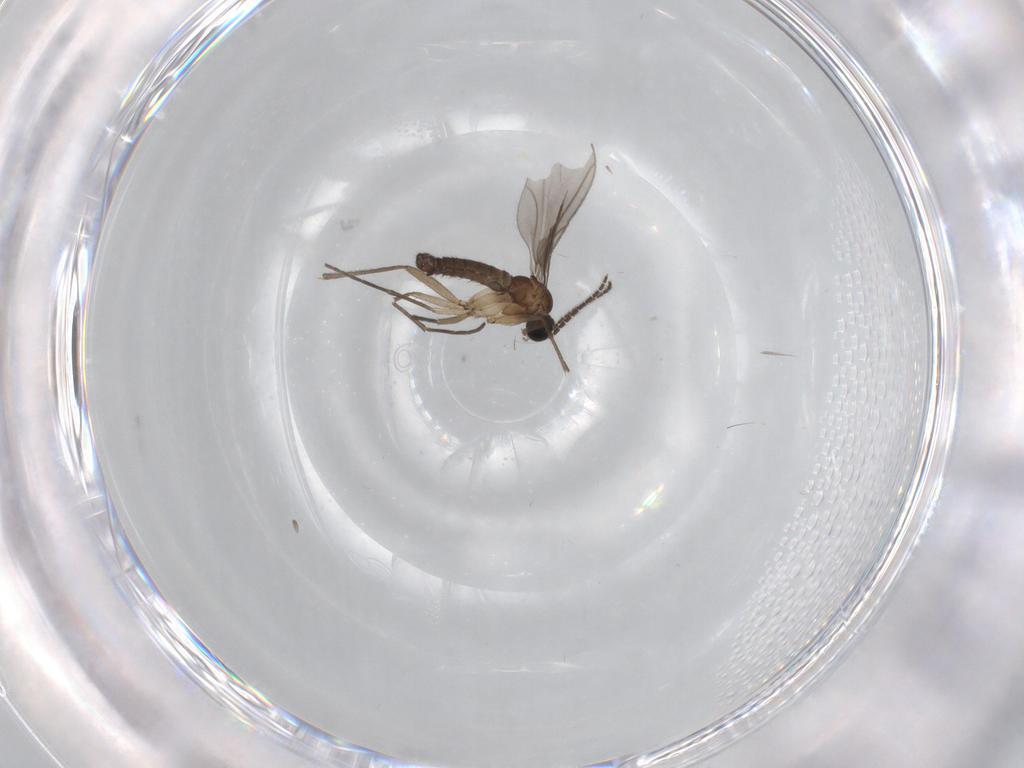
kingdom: Animalia
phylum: Arthropoda
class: Insecta
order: Diptera
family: Sciaridae
